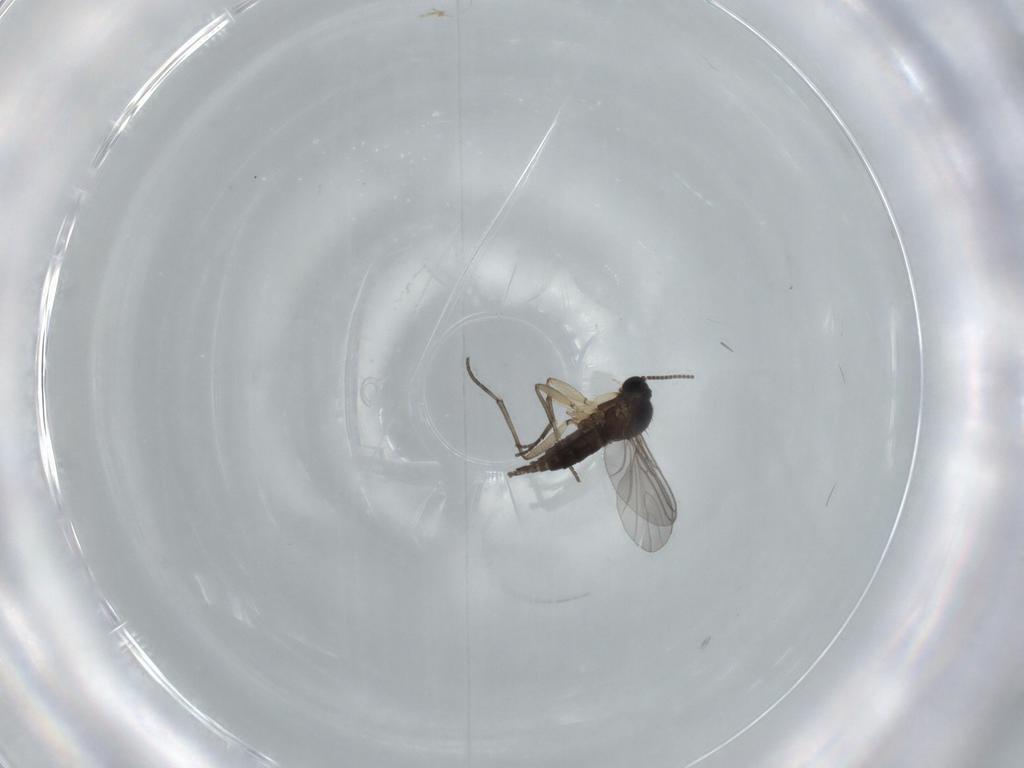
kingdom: Animalia
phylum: Arthropoda
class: Insecta
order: Diptera
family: Sciaridae
